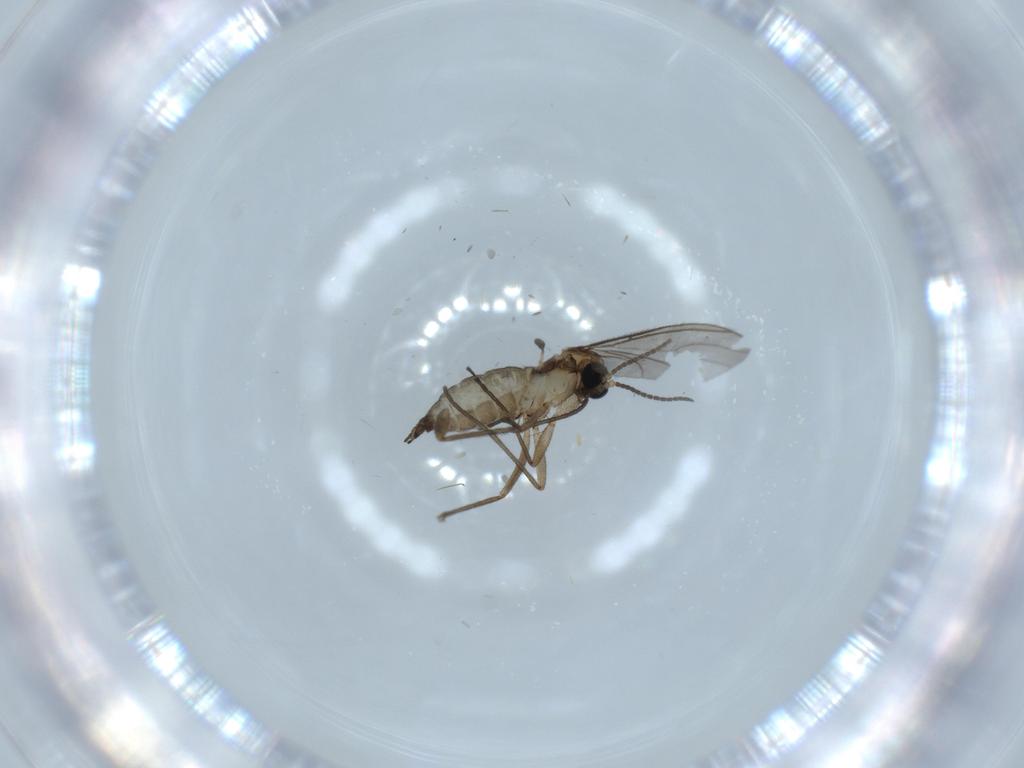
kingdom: Animalia
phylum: Arthropoda
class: Insecta
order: Diptera
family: Sciaridae
